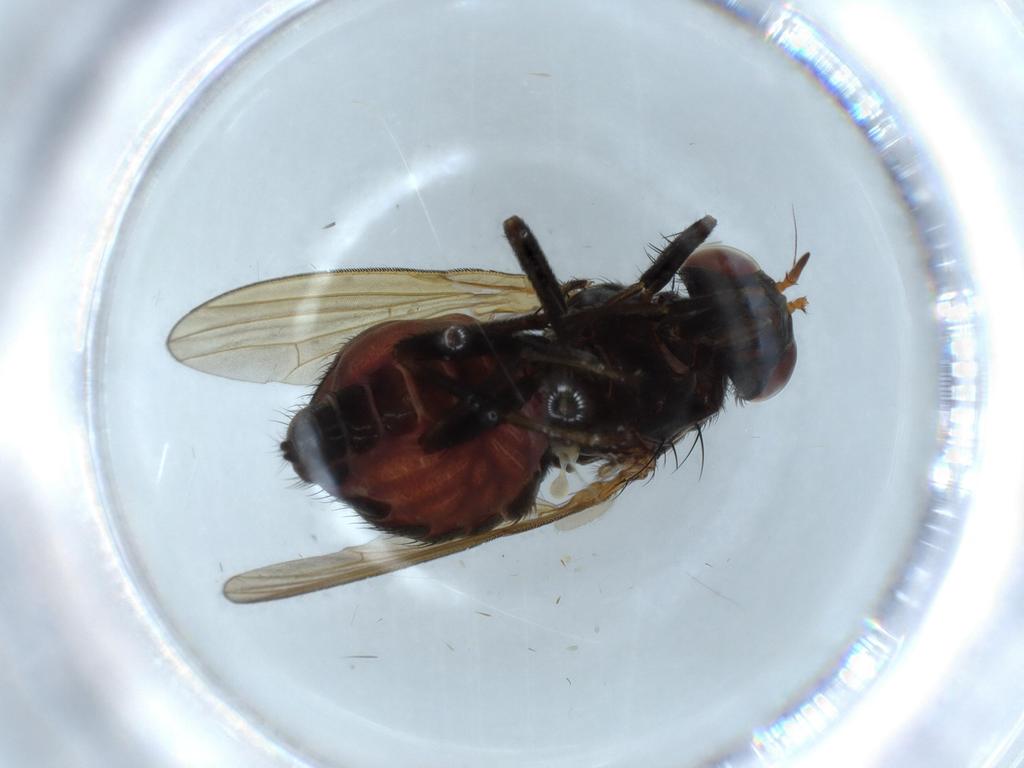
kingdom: Animalia
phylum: Arthropoda
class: Insecta
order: Diptera
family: Lauxaniidae
